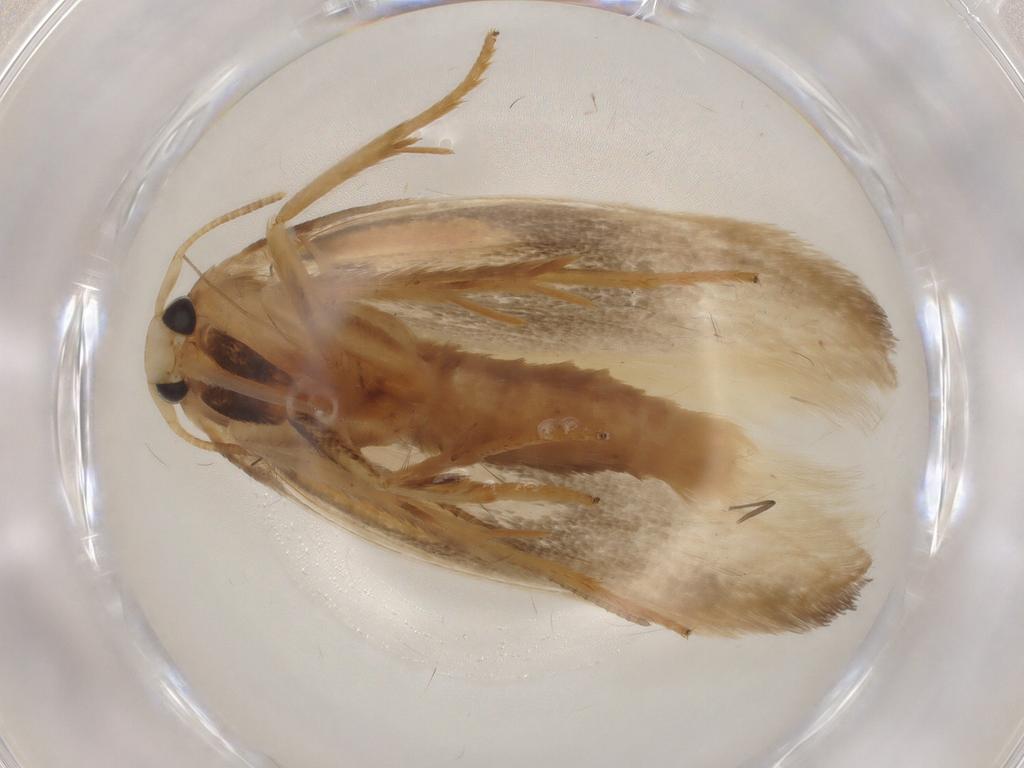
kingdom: Animalia
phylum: Arthropoda
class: Insecta
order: Lepidoptera
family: Geometridae
